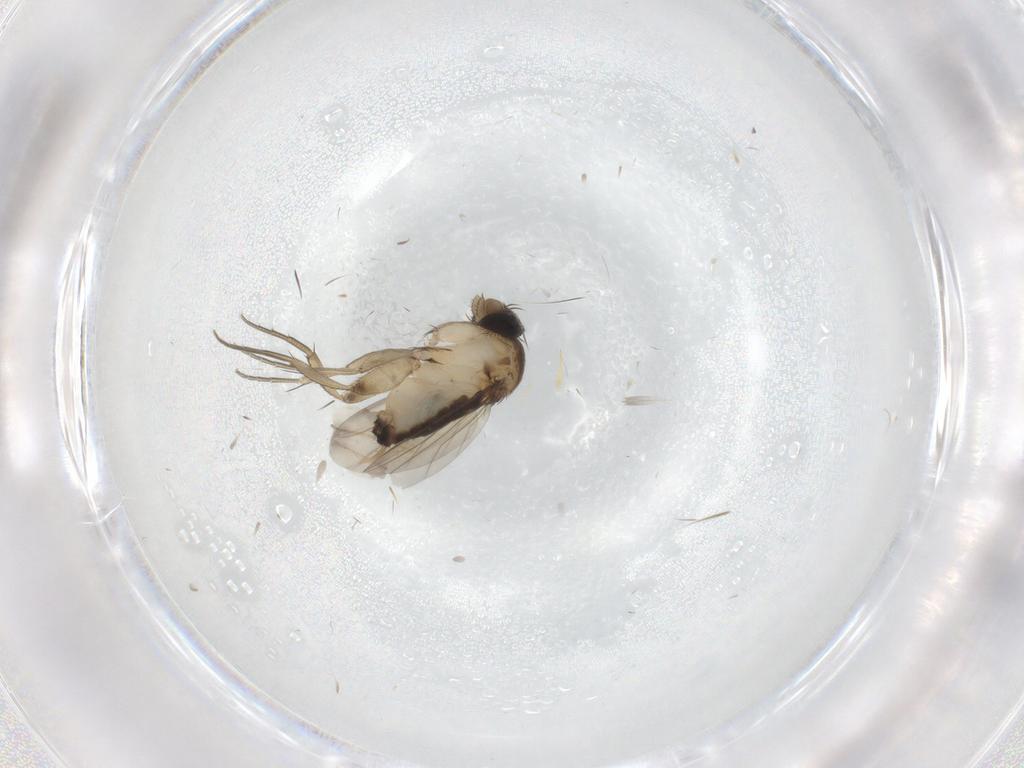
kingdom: Animalia
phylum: Arthropoda
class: Insecta
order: Diptera
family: Phoridae
